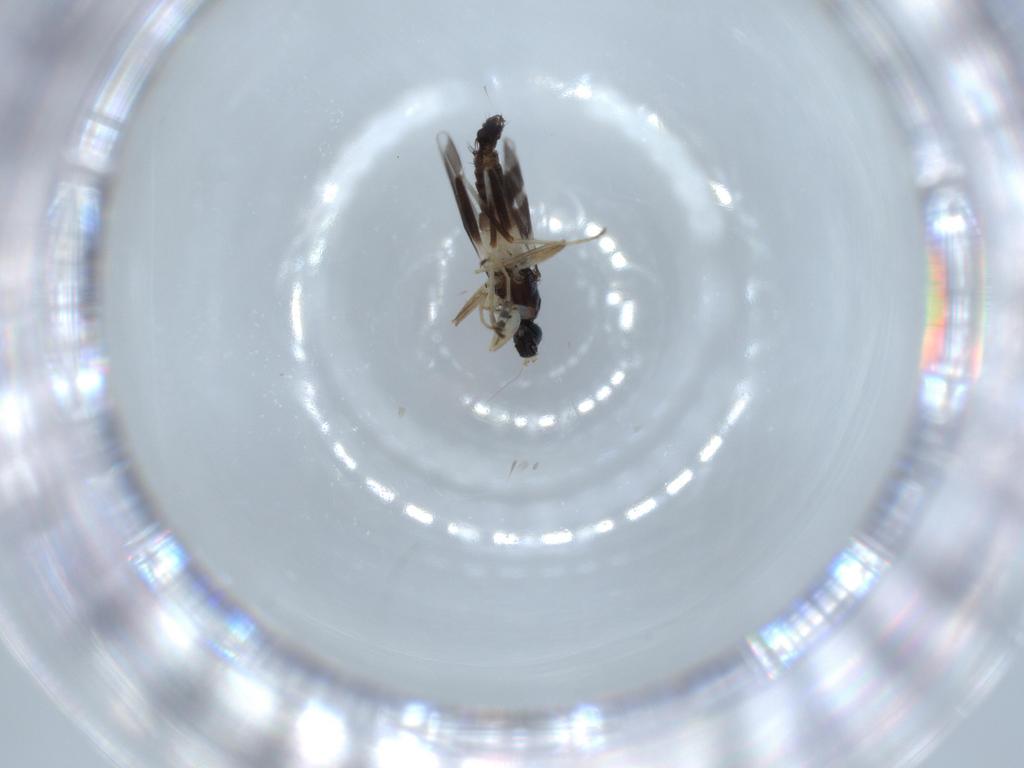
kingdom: Animalia
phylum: Arthropoda
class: Insecta
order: Diptera
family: Hybotidae
